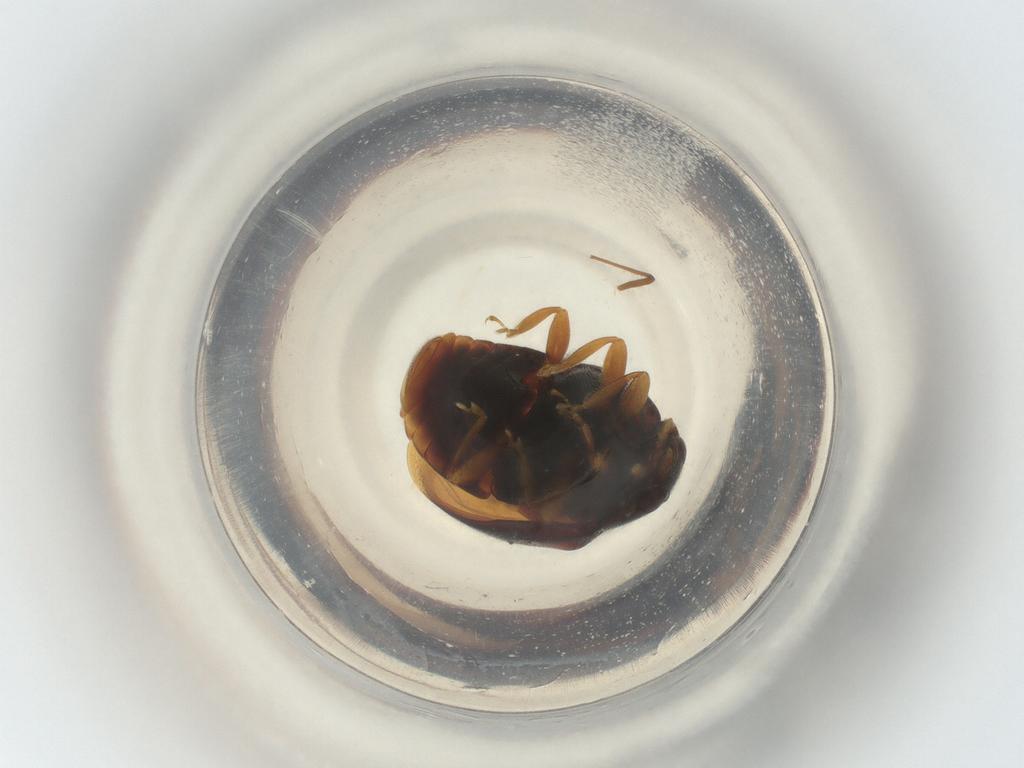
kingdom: Animalia
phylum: Arthropoda
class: Insecta
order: Coleoptera
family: Coccinellidae
